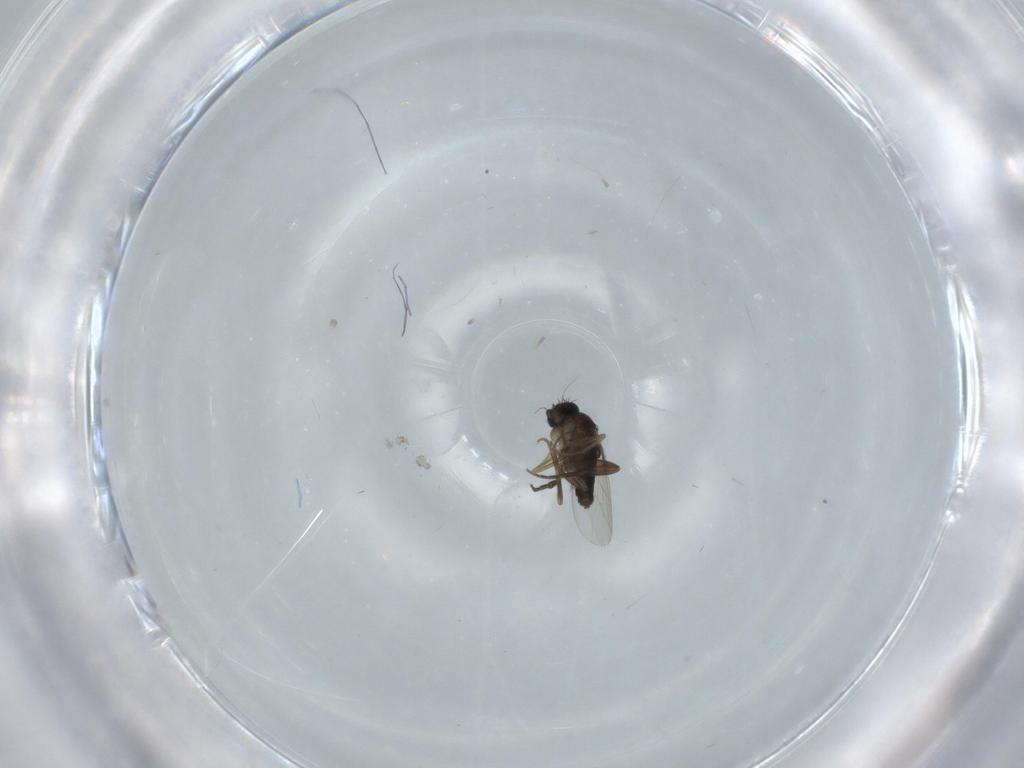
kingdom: Animalia
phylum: Arthropoda
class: Insecta
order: Diptera
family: Phoridae
